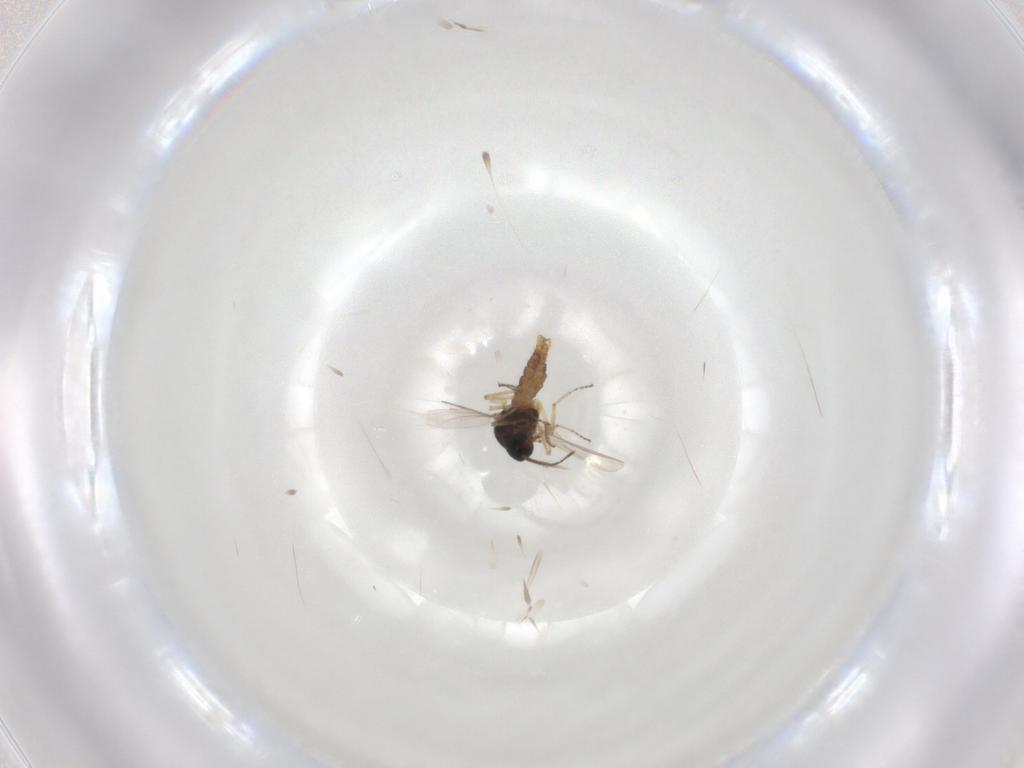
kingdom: Animalia
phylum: Arthropoda
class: Insecta
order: Diptera
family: Ceratopogonidae
